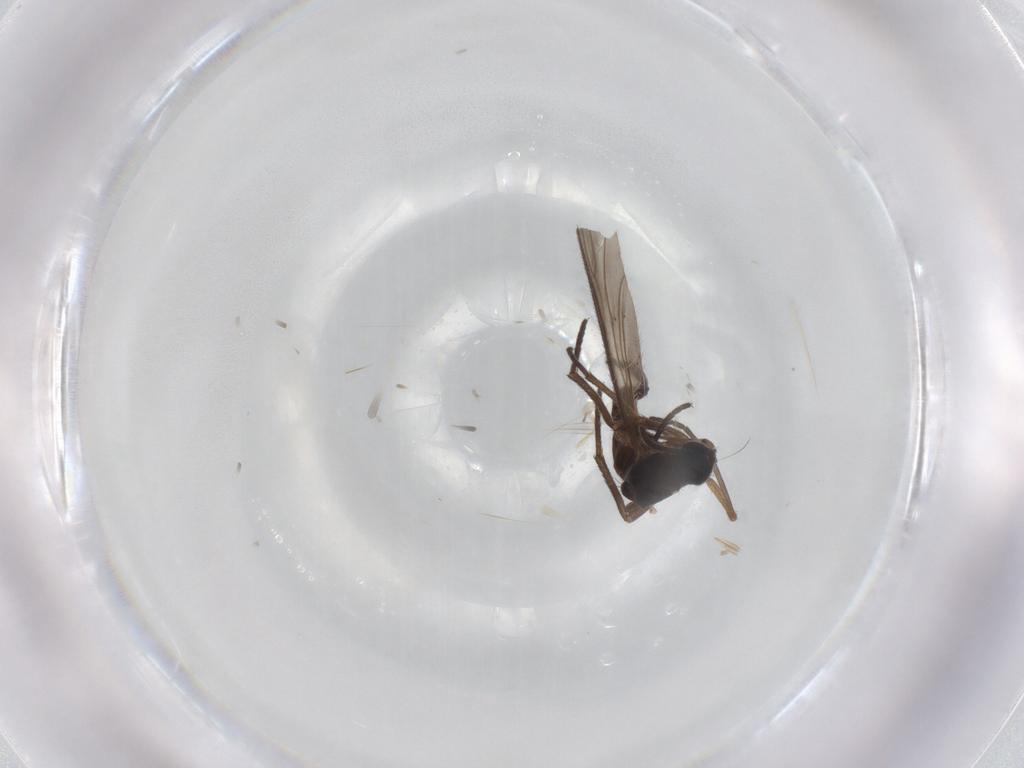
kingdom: Animalia
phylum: Arthropoda
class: Insecta
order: Diptera
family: Sciaridae
